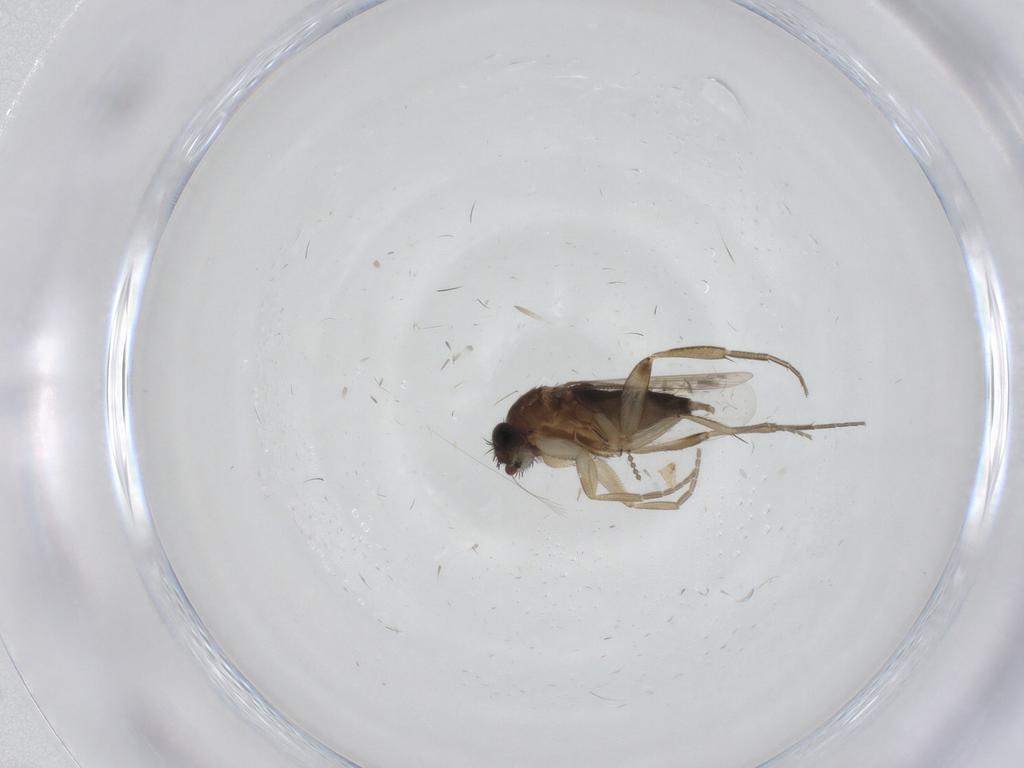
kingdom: Animalia
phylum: Arthropoda
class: Insecta
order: Diptera
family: Phoridae
